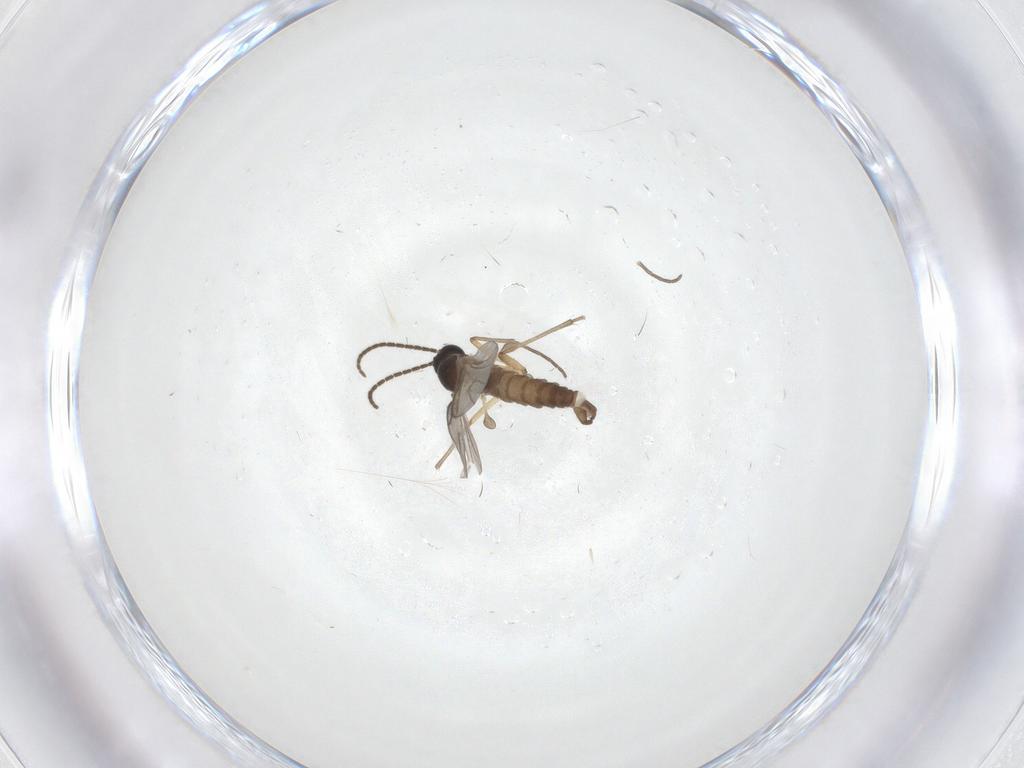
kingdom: Animalia
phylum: Arthropoda
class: Insecta
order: Diptera
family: Sciaridae
